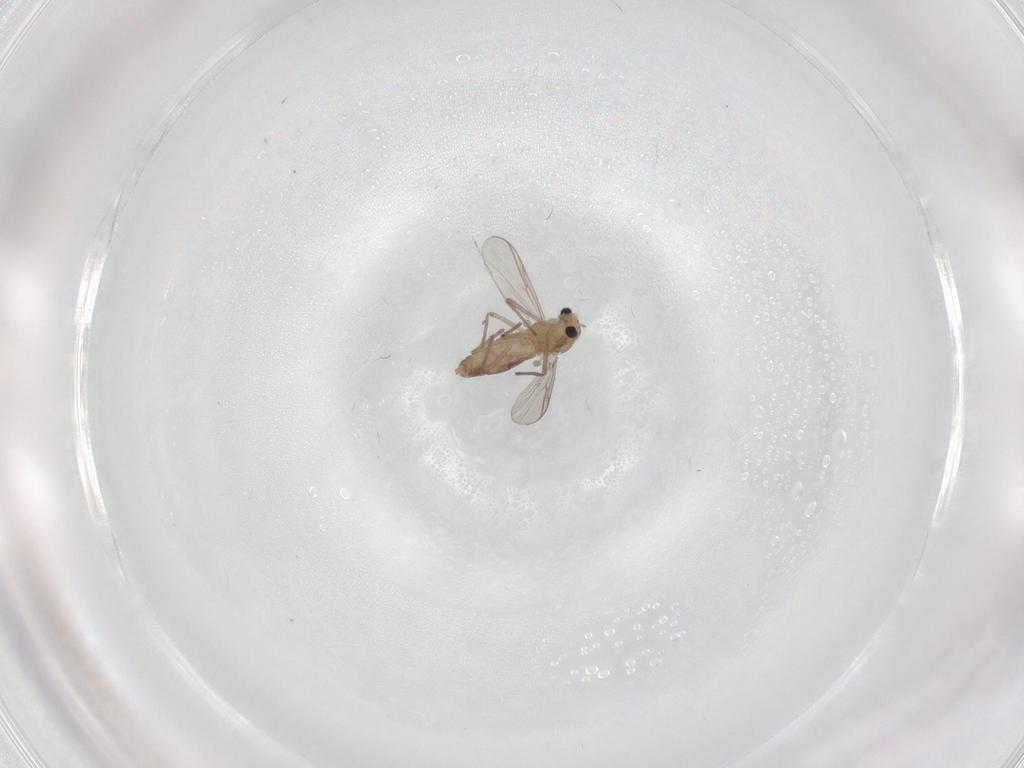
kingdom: Animalia
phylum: Arthropoda
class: Insecta
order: Diptera
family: Chironomidae
